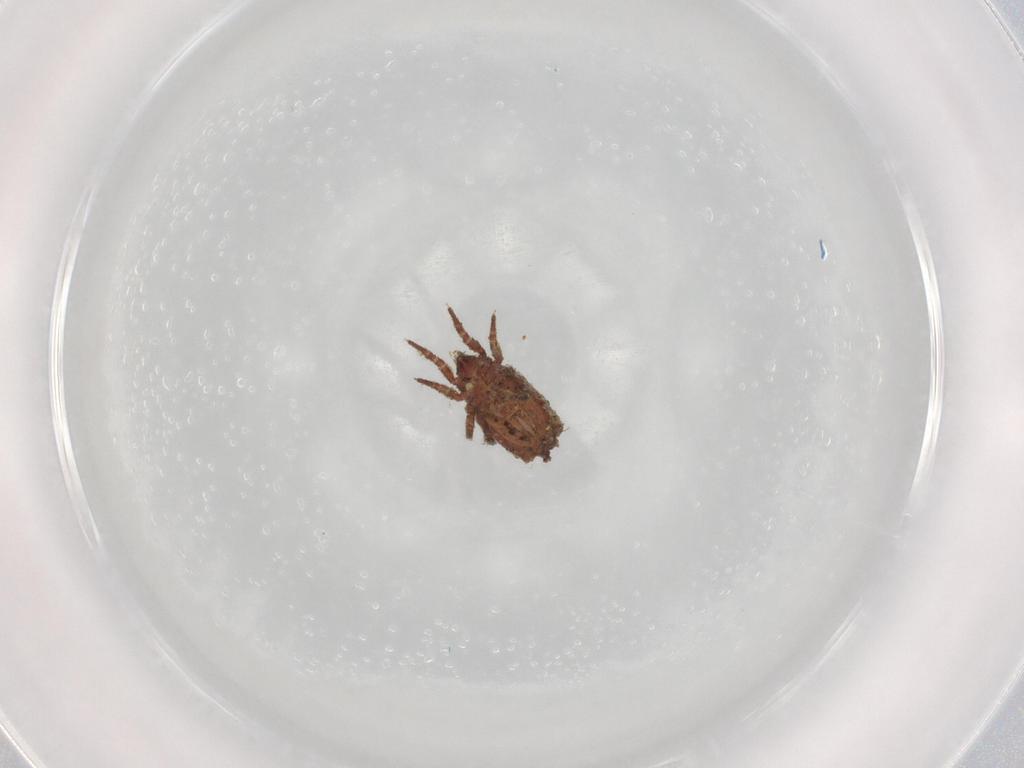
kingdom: Animalia
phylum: Arthropoda
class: Arachnida
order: Sarcoptiformes
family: Crotoniidae
